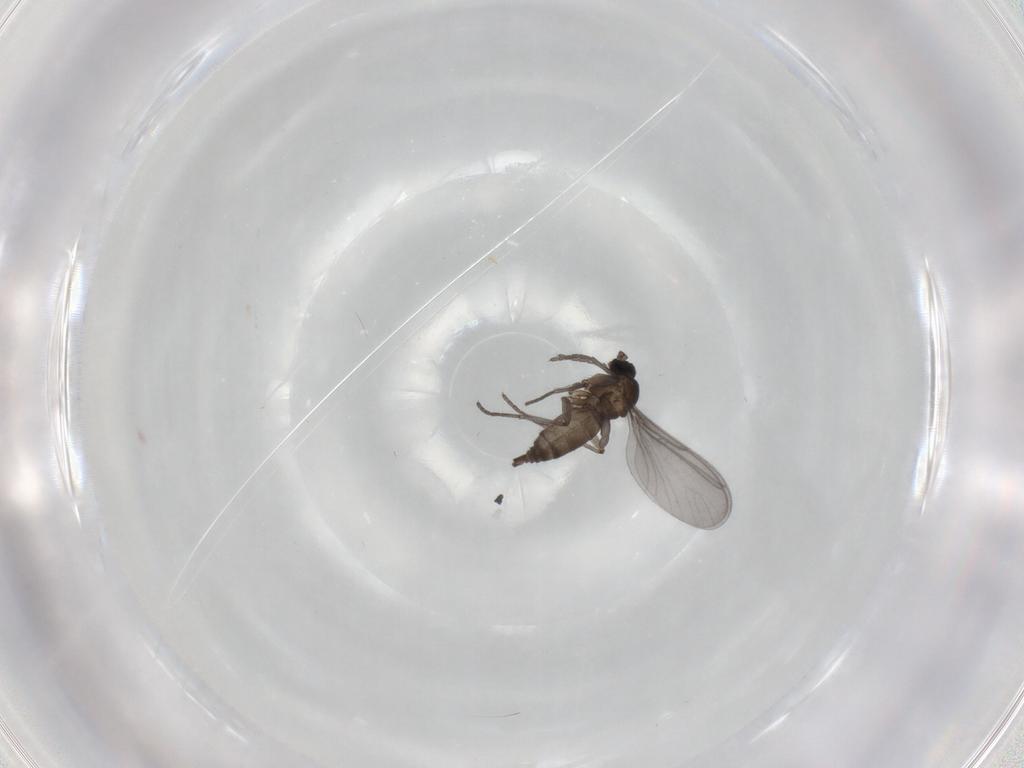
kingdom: Animalia
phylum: Arthropoda
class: Insecta
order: Diptera
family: Sciaridae
